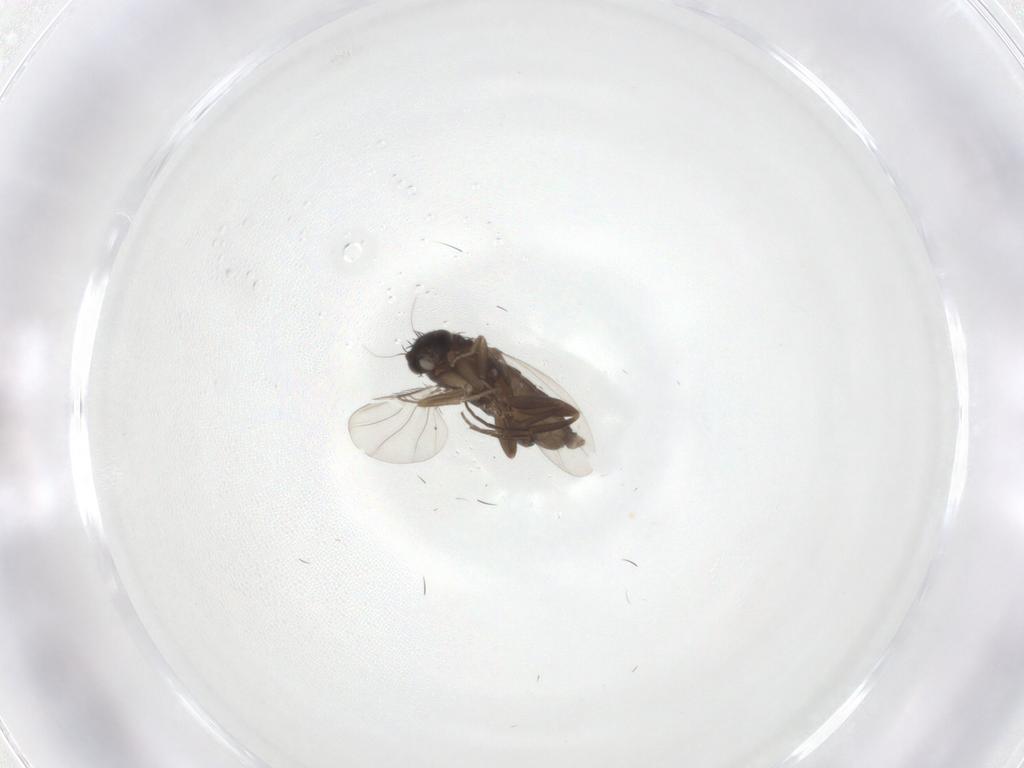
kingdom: Animalia
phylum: Arthropoda
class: Insecta
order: Diptera
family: Phoridae
